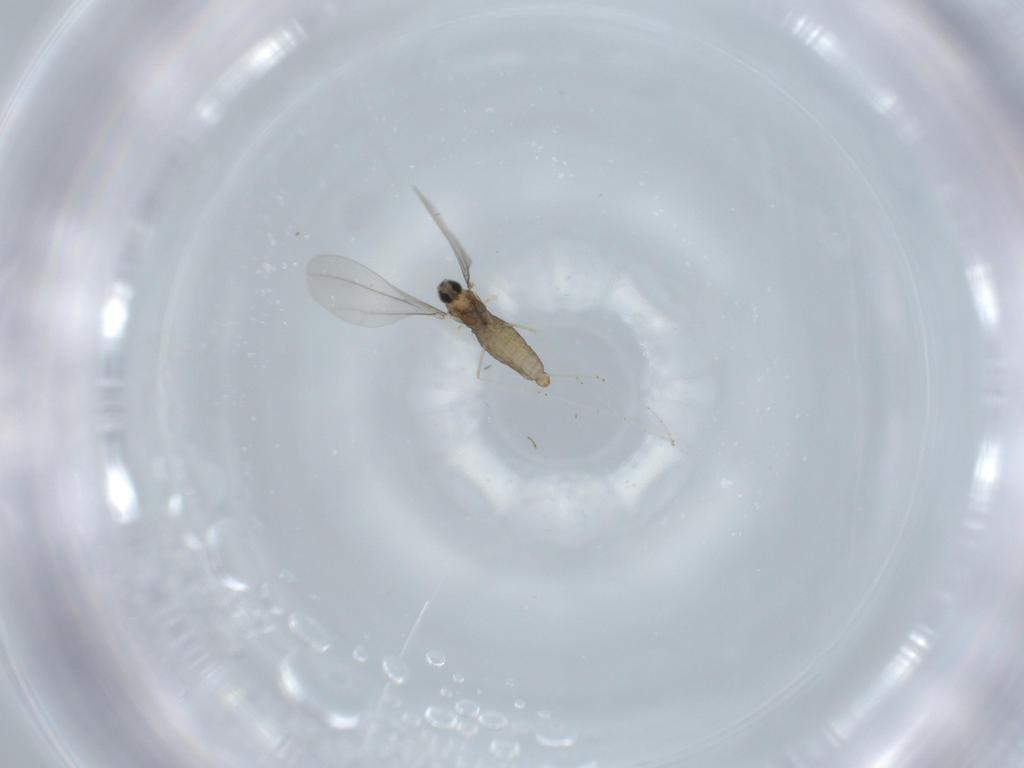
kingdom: Animalia
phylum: Arthropoda
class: Insecta
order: Diptera
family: Cecidomyiidae
